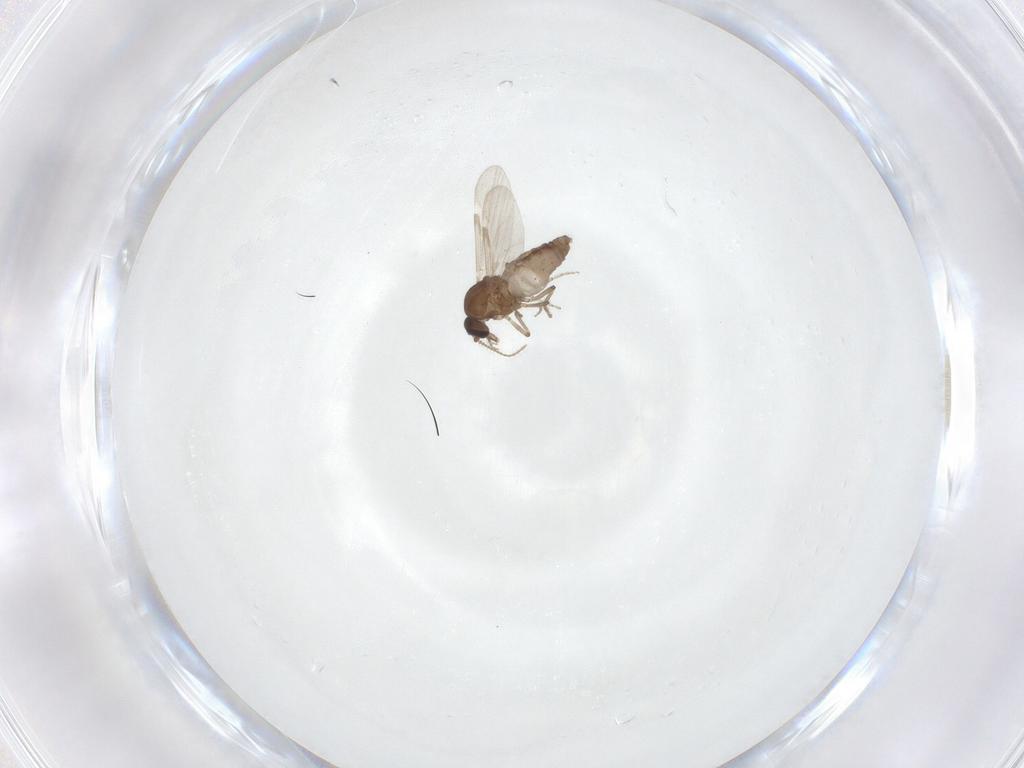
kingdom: Animalia
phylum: Arthropoda
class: Insecta
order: Diptera
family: Ceratopogonidae
